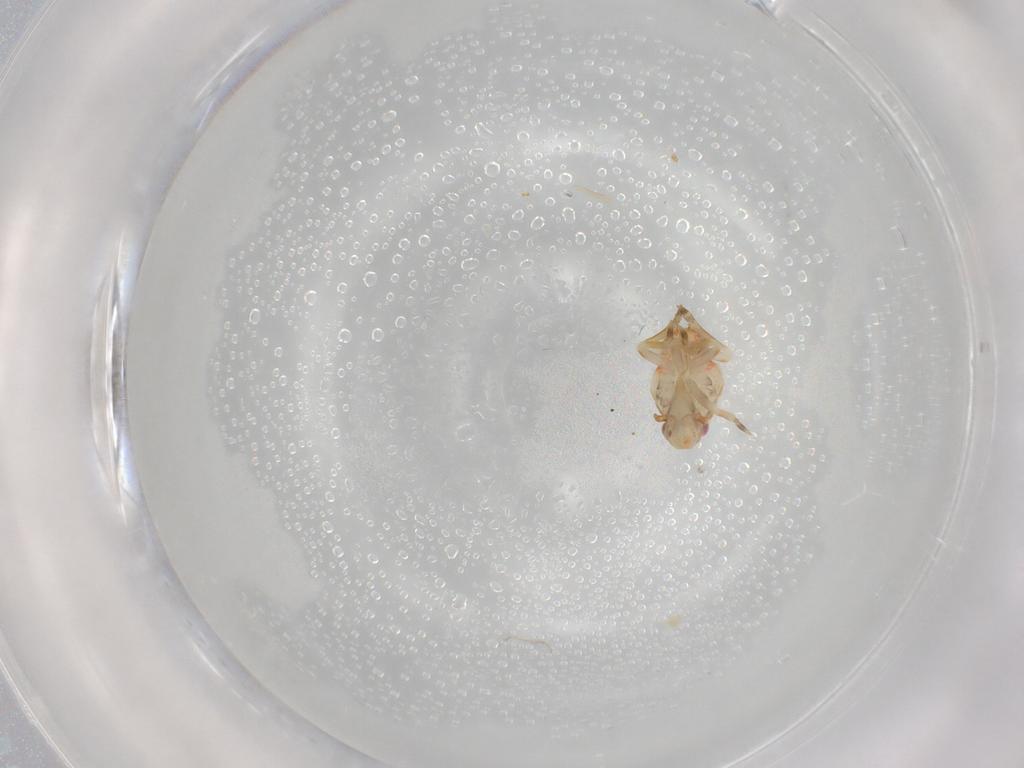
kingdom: Animalia
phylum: Arthropoda
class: Insecta
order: Hemiptera
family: Flatidae
